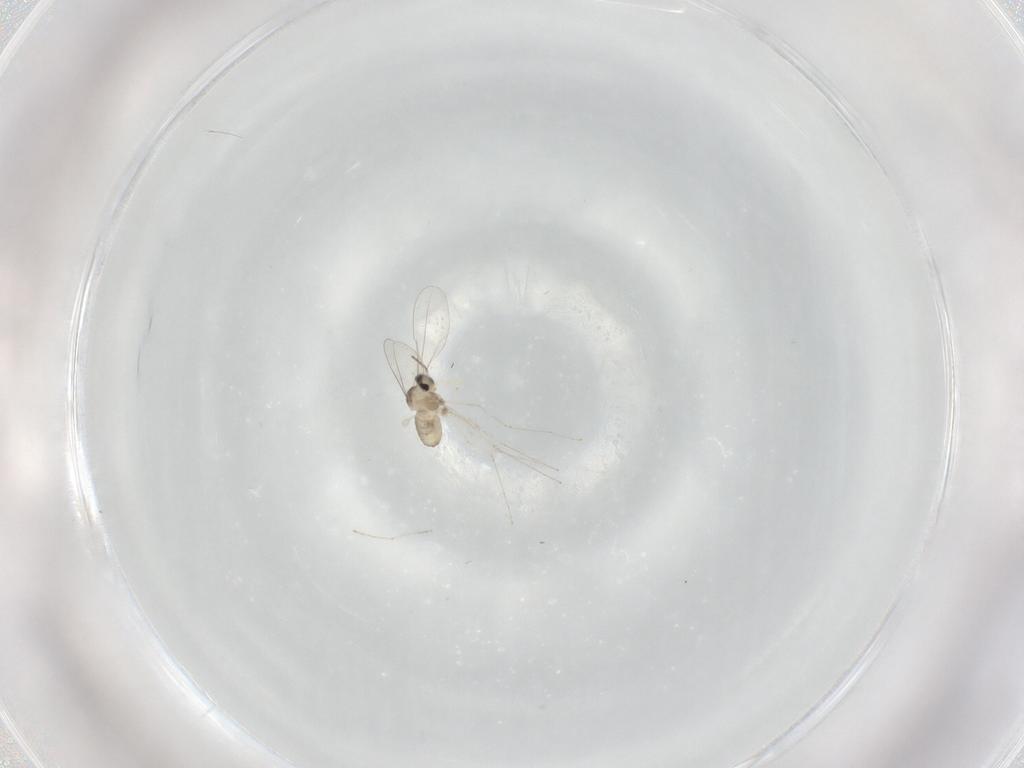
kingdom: Animalia
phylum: Arthropoda
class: Insecta
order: Diptera
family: Cecidomyiidae
